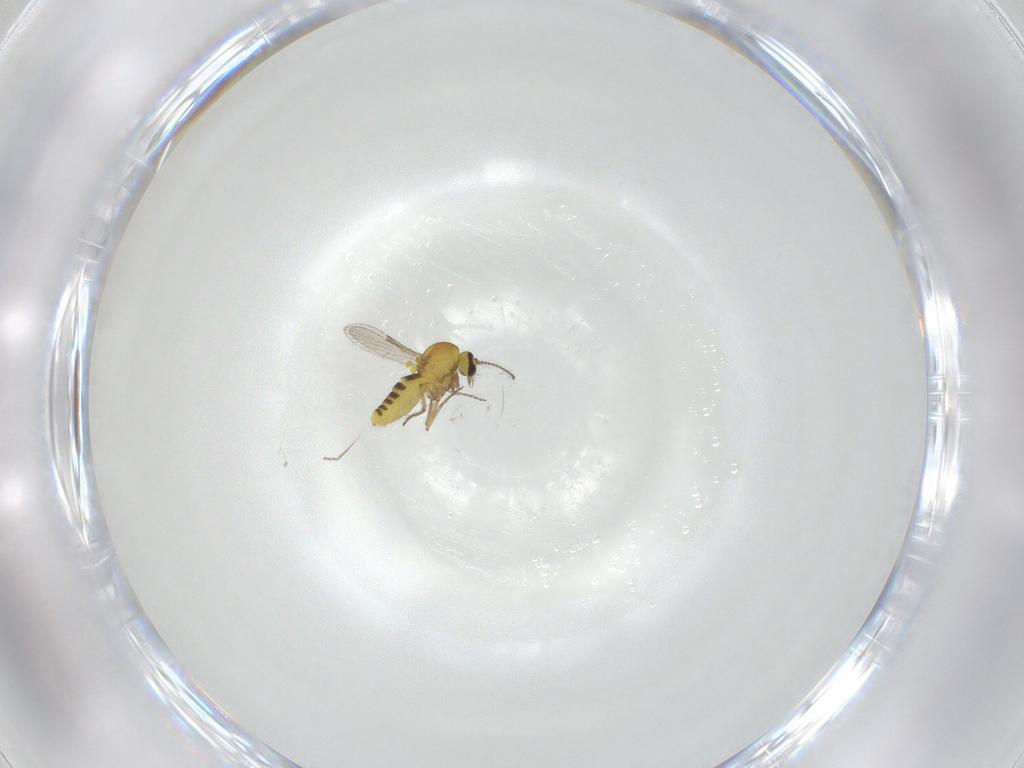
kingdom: Animalia
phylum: Arthropoda
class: Insecta
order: Diptera
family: Ceratopogonidae
